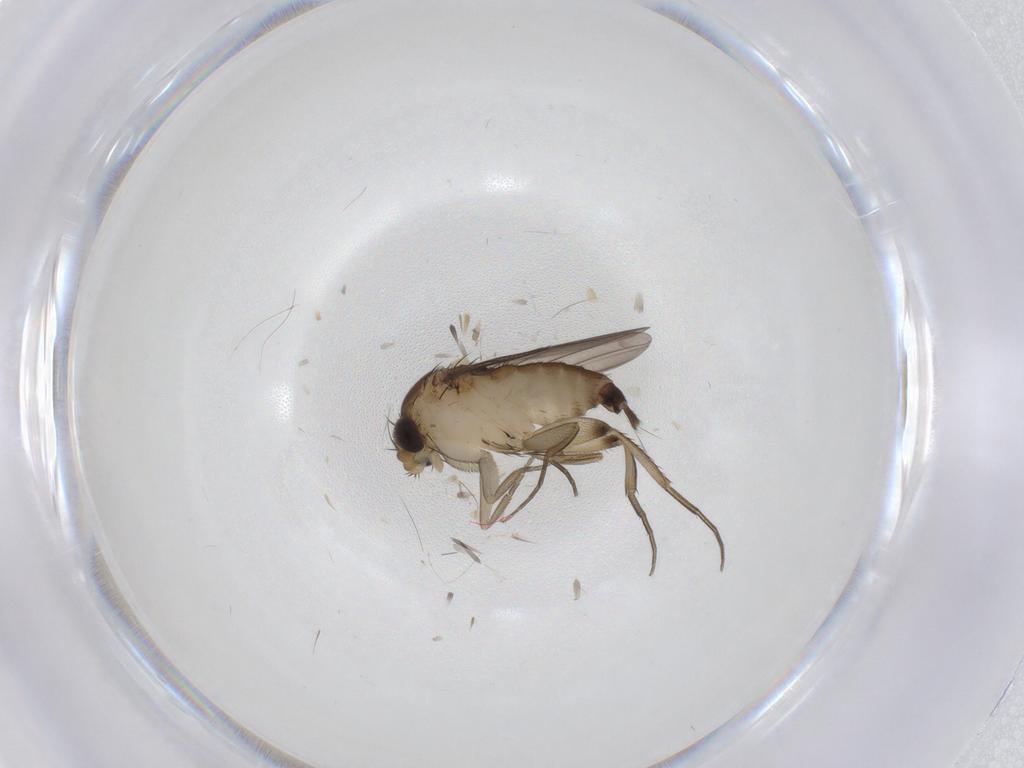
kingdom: Animalia
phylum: Arthropoda
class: Insecta
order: Diptera
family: Phoridae
